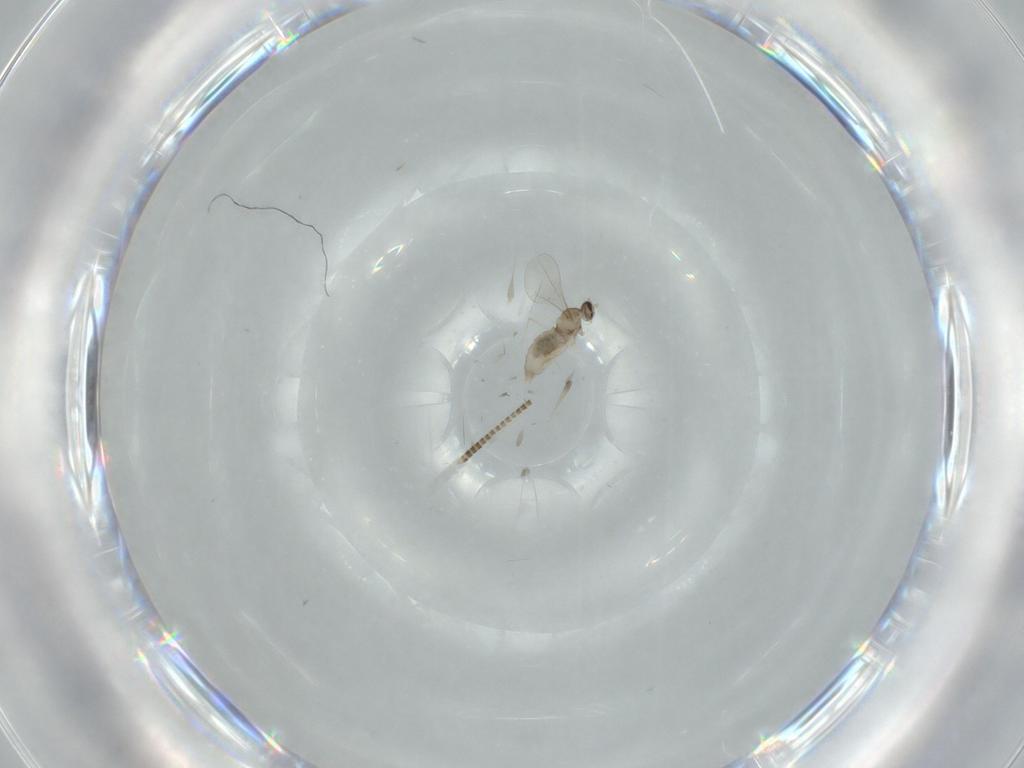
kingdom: Animalia
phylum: Arthropoda
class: Insecta
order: Diptera
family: Cecidomyiidae
